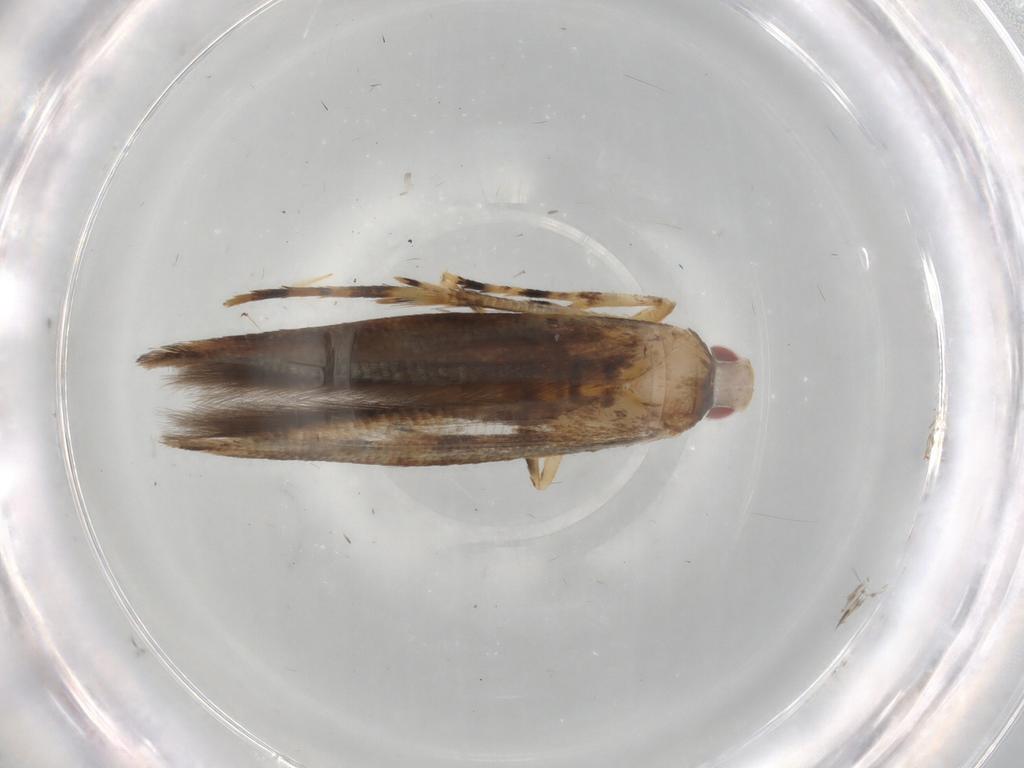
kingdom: Animalia
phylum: Arthropoda
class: Insecta
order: Lepidoptera
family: Cosmopterigidae
